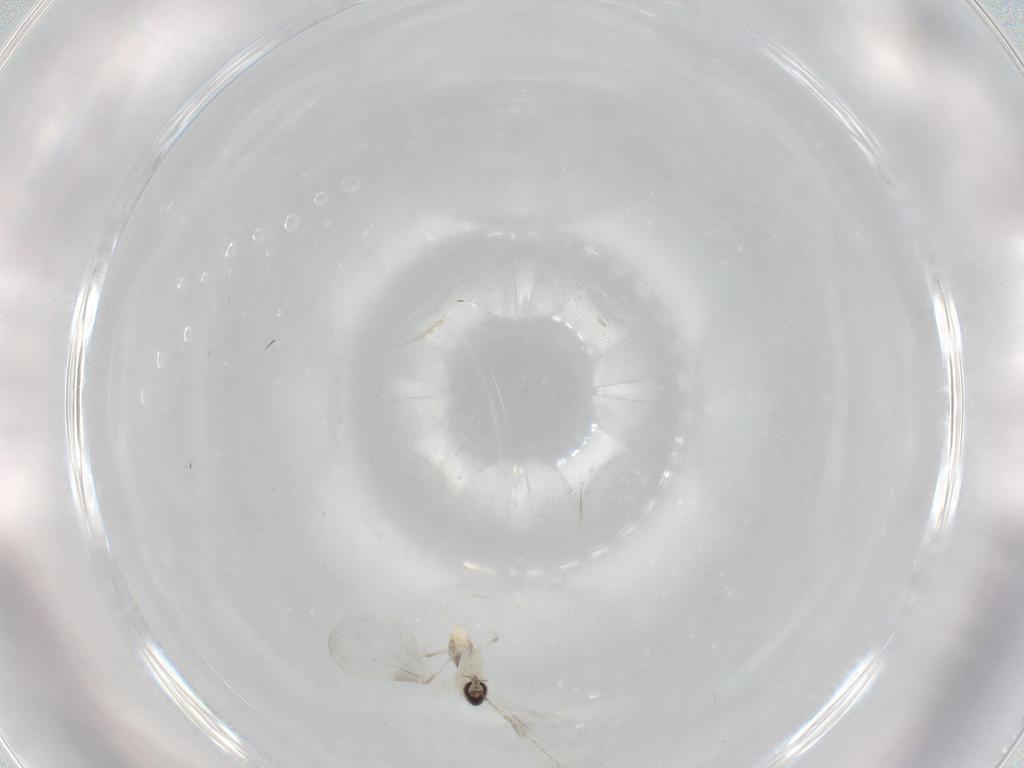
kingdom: Animalia
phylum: Arthropoda
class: Insecta
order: Diptera
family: Cecidomyiidae
